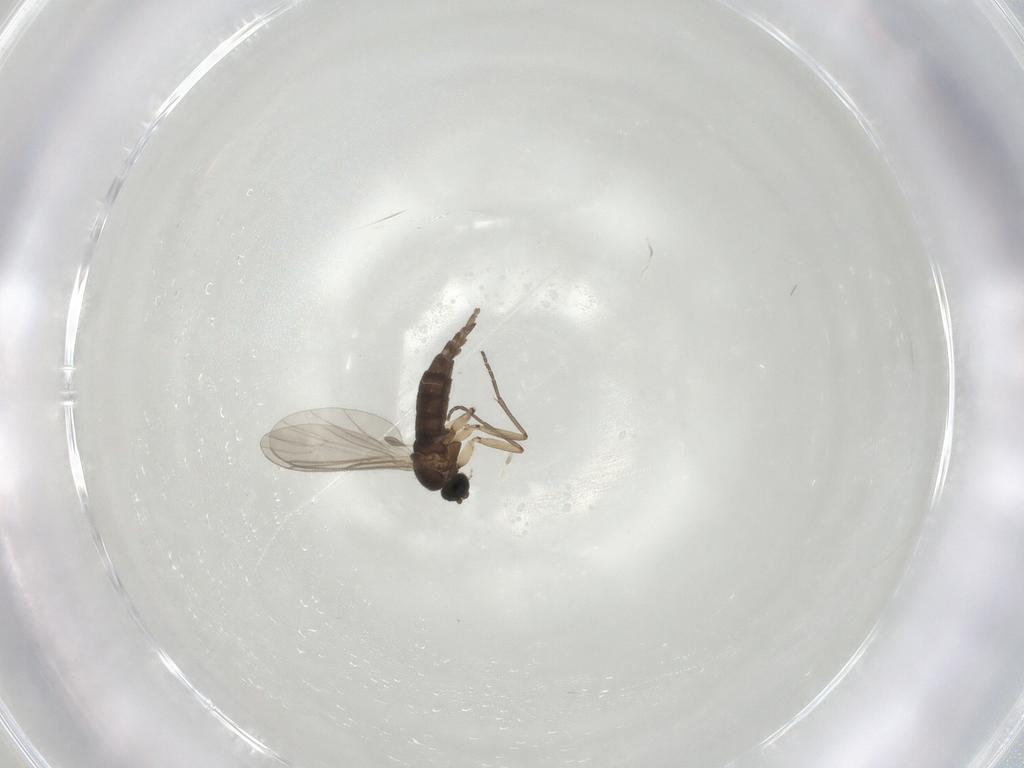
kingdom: Animalia
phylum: Arthropoda
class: Insecta
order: Diptera
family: Sciaridae
